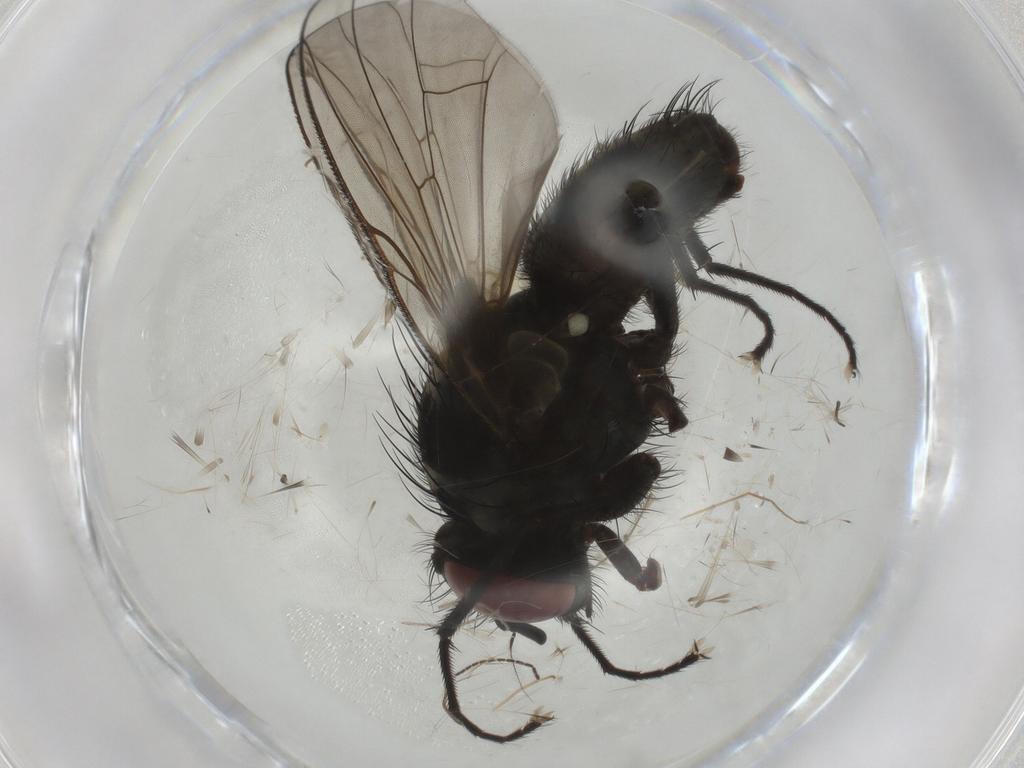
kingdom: Animalia
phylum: Arthropoda
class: Insecta
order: Diptera
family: Muscidae
